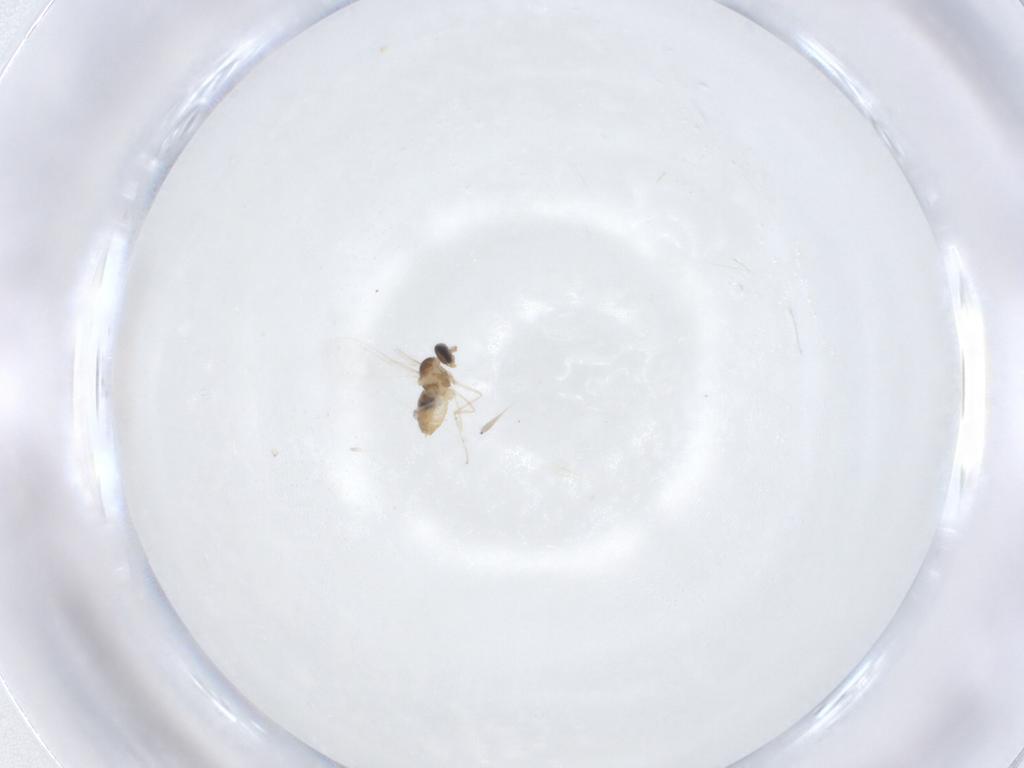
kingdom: Animalia
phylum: Arthropoda
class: Insecta
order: Diptera
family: Cecidomyiidae
